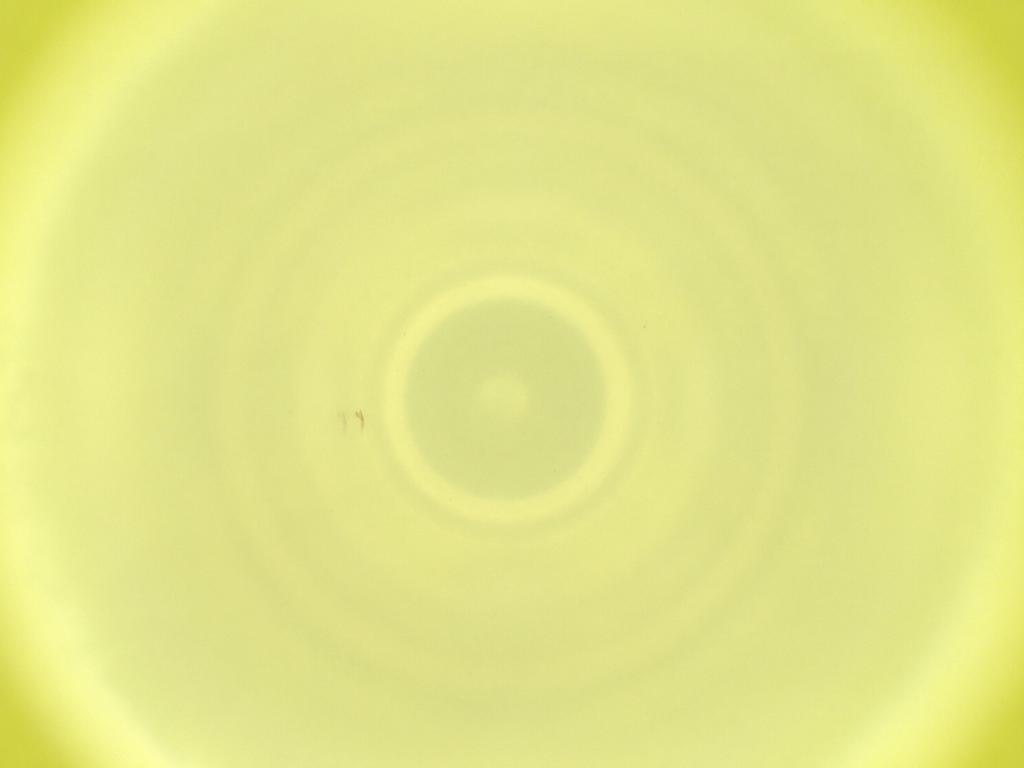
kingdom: Animalia
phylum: Arthropoda
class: Insecta
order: Diptera
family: Cecidomyiidae
